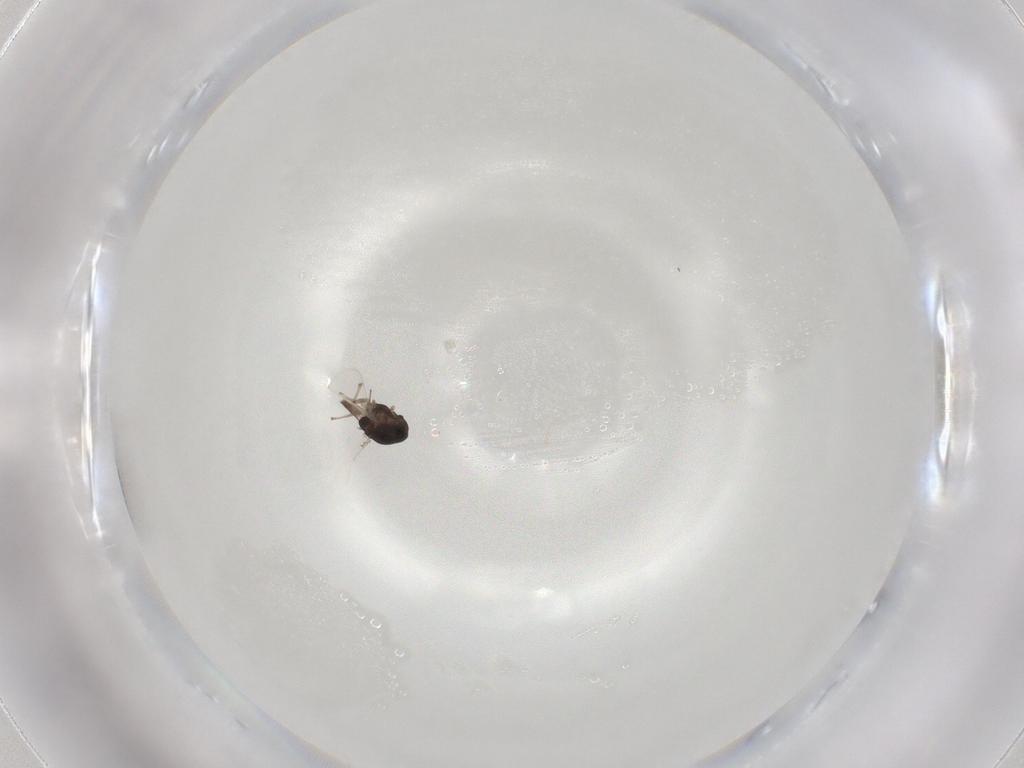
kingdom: Animalia
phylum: Arthropoda
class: Insecta
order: Diptera
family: Chironomidae
